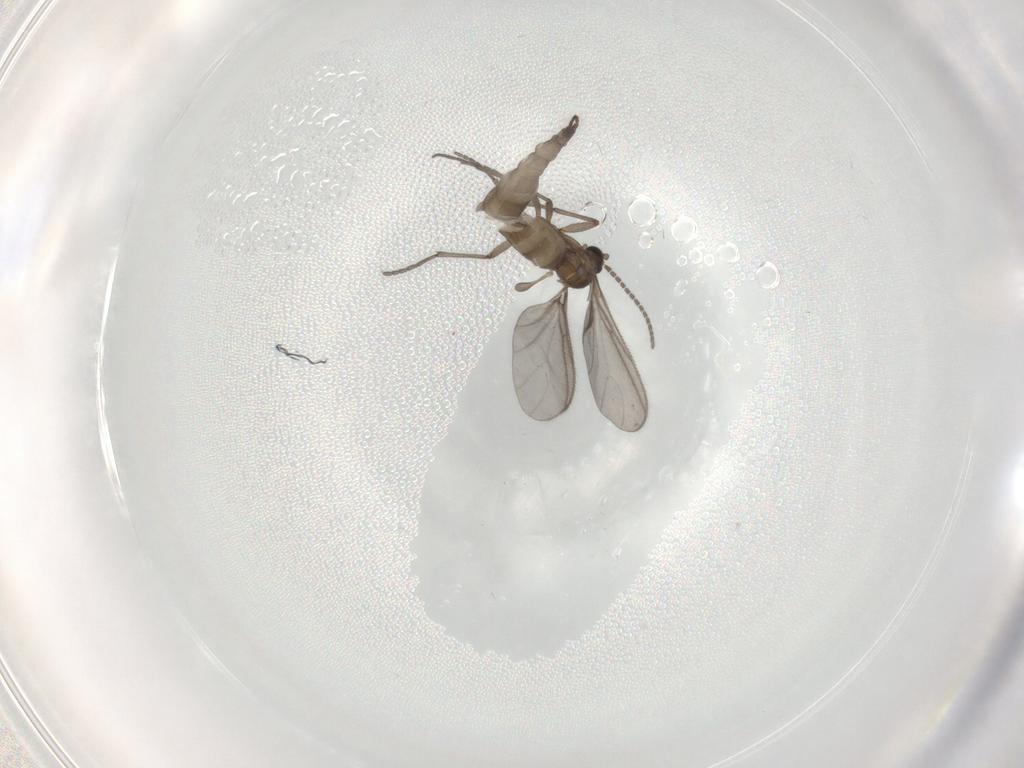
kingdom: Animalia
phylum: Arthropoda
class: Insecta
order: Diptera
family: Sciaridae
